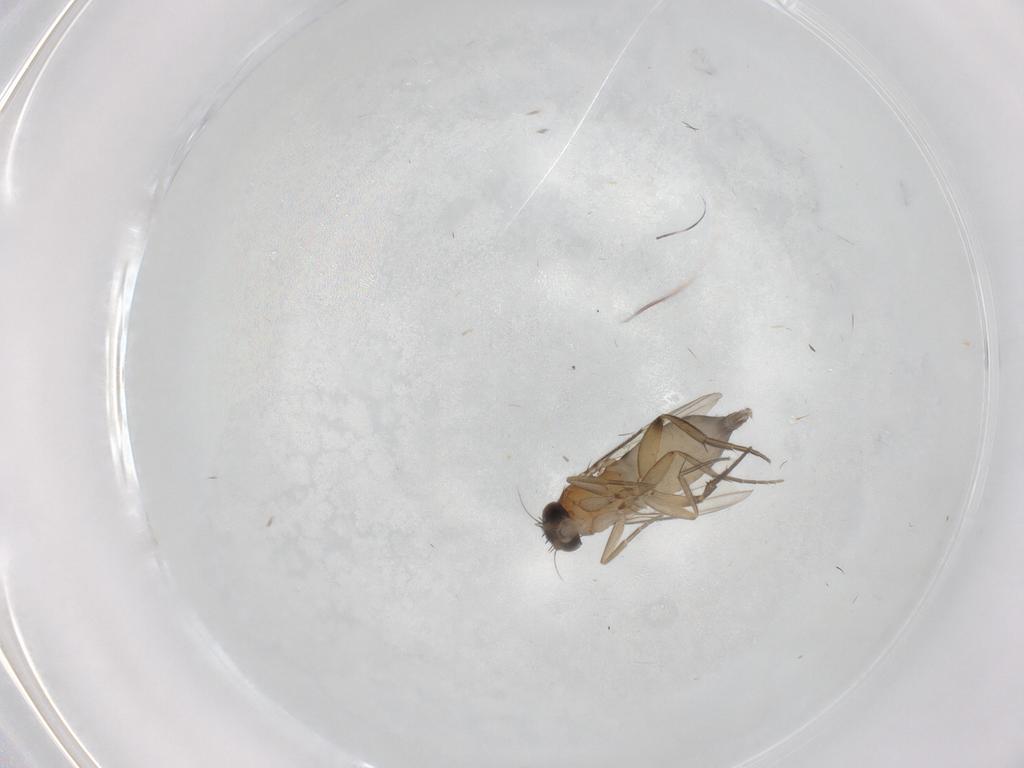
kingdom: Animalia
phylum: Arthropoda
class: Insecta
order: Diptera
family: Phoridae
